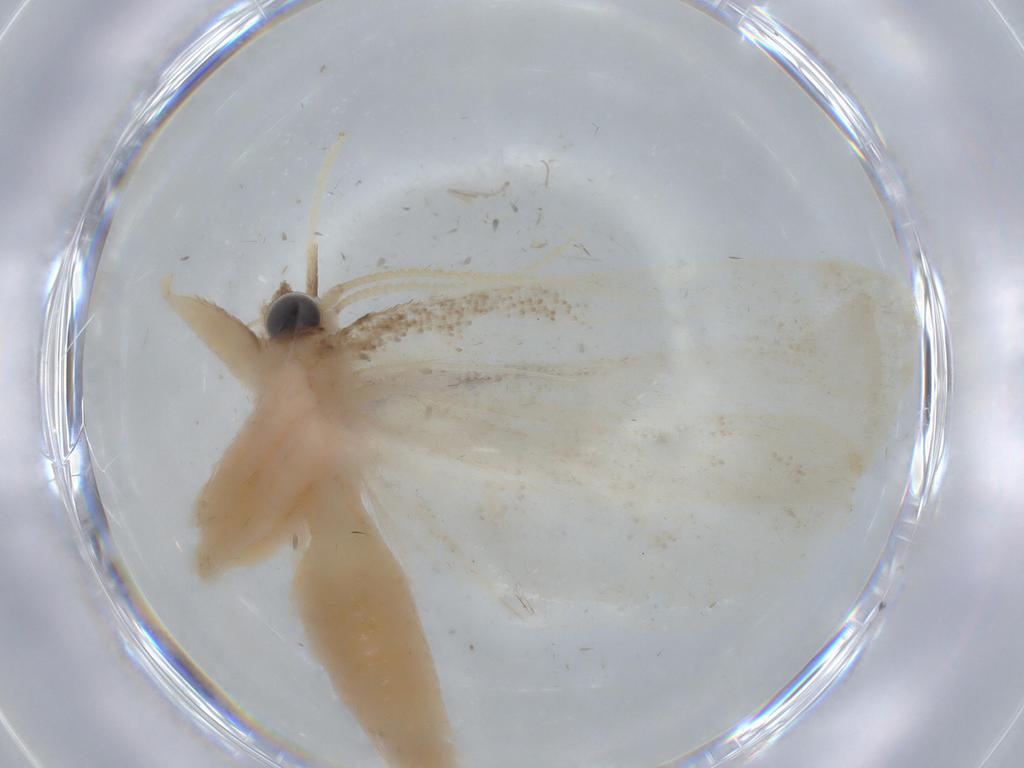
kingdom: Animalia
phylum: Arthropoda
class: Insecta
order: Lepidoptera
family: Crambidae
